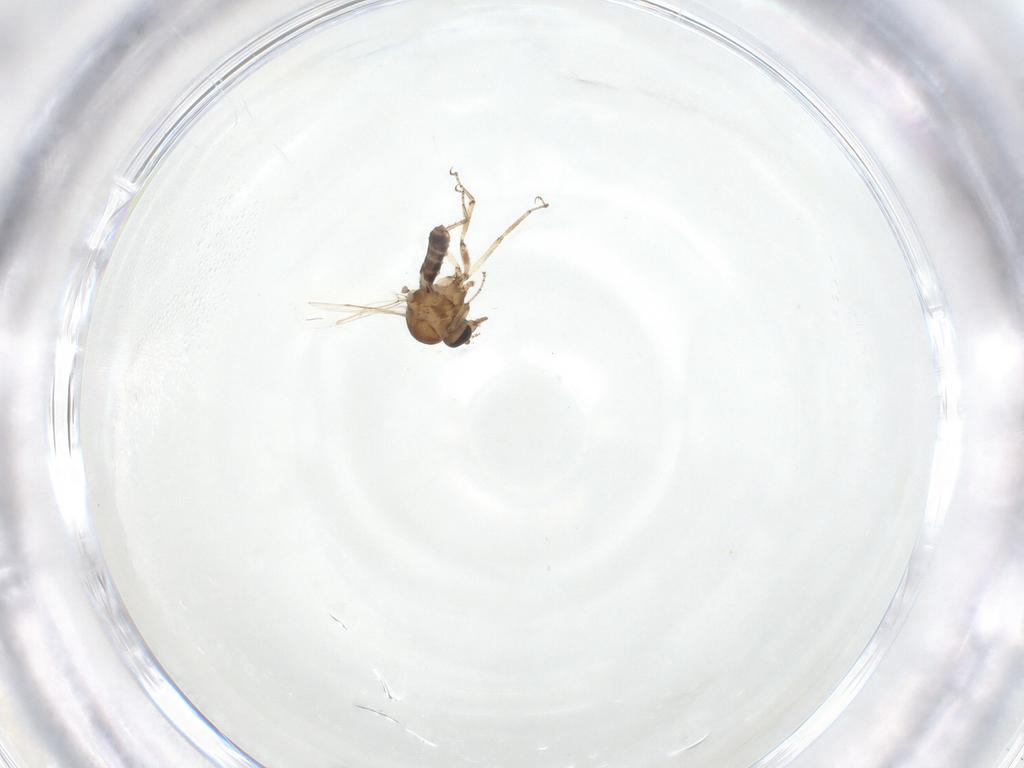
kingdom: Animalia
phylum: Arthropoda
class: Insecta
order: Diptera
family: Ceratopogonidae
